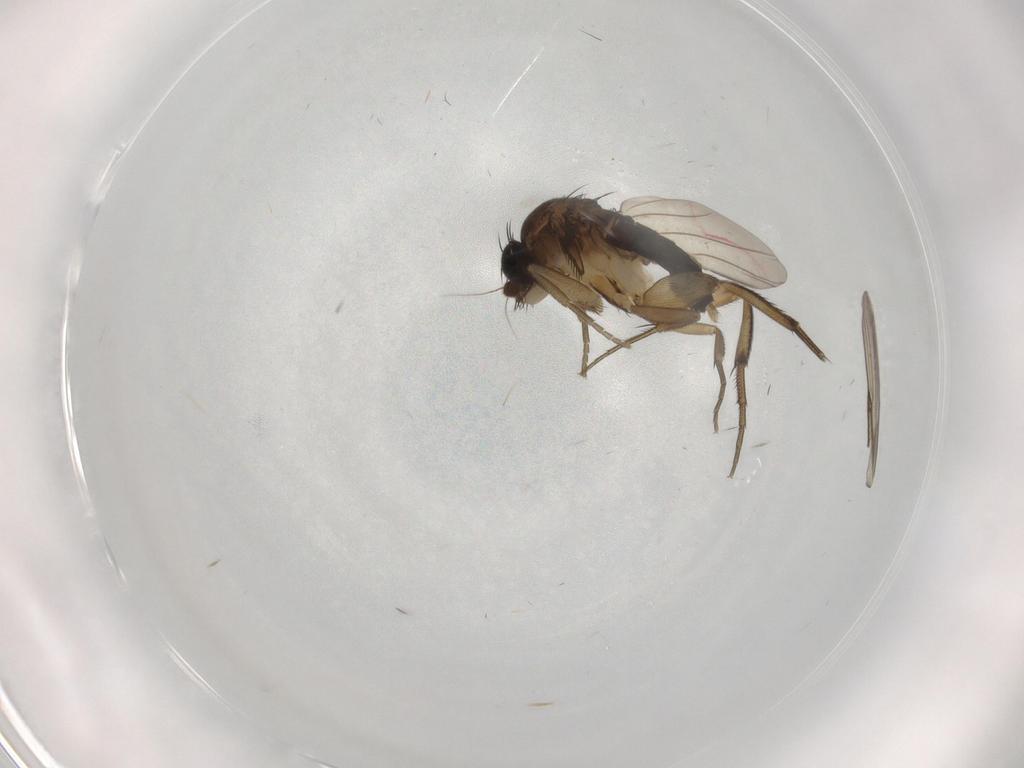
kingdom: Animalia
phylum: Arthropoda
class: Insecta
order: Diptera
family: Phoridae
